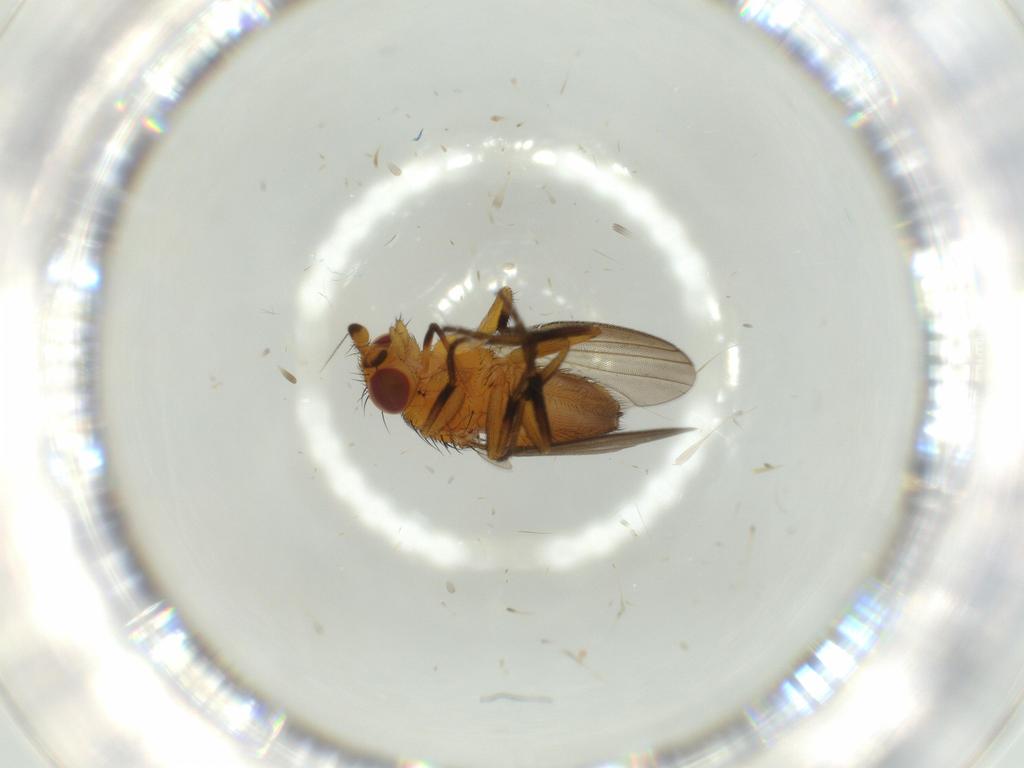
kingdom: Animalia
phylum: Arthropoda
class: Insecta
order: Diptera
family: Milichiidae
